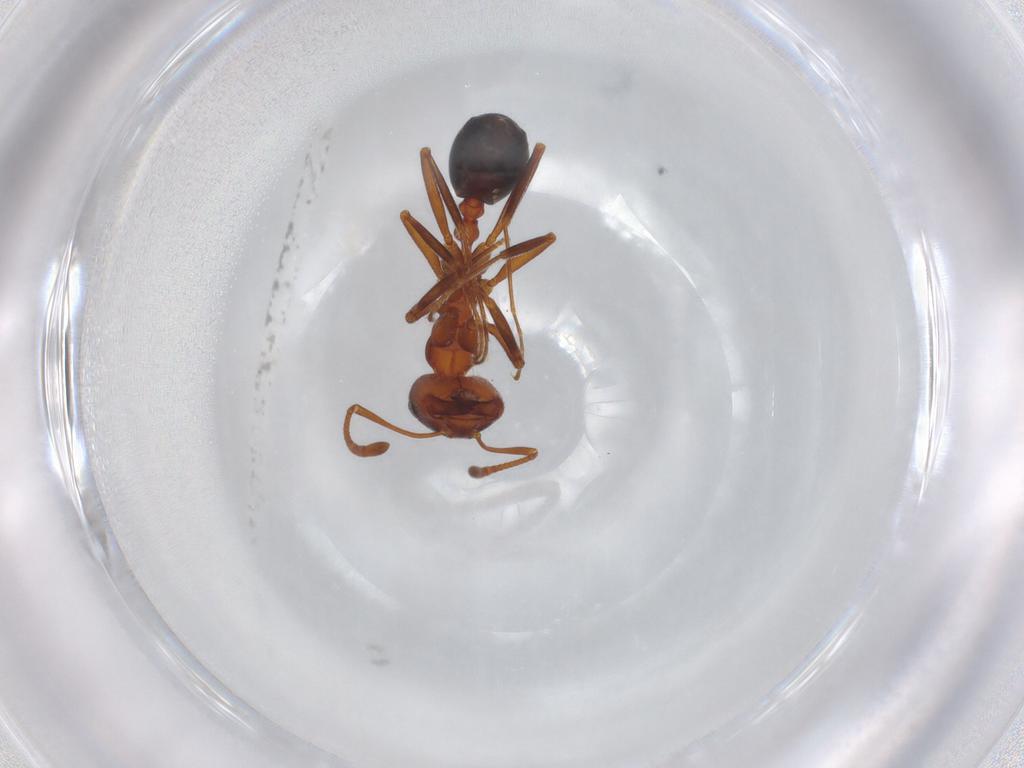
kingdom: Animalia
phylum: Arthropoda
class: Insecta
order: Hymenoptera
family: Formicidae
